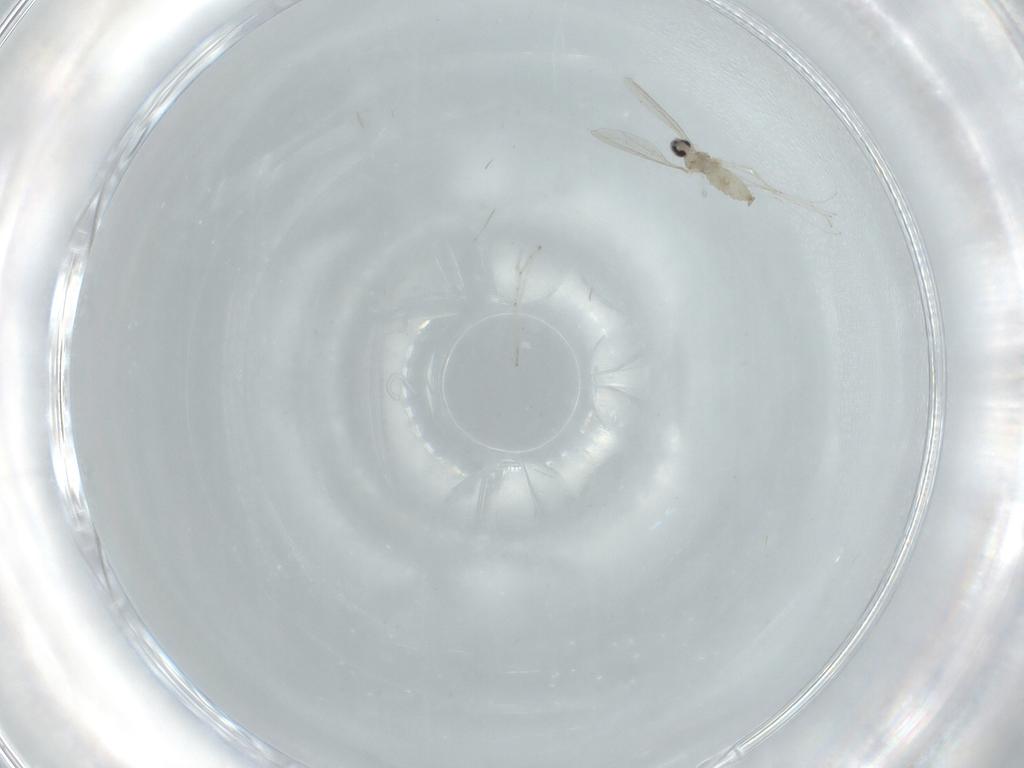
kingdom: Animalia
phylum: Arthropoda
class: Insecta
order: Diptera
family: Cecidomyiidae
